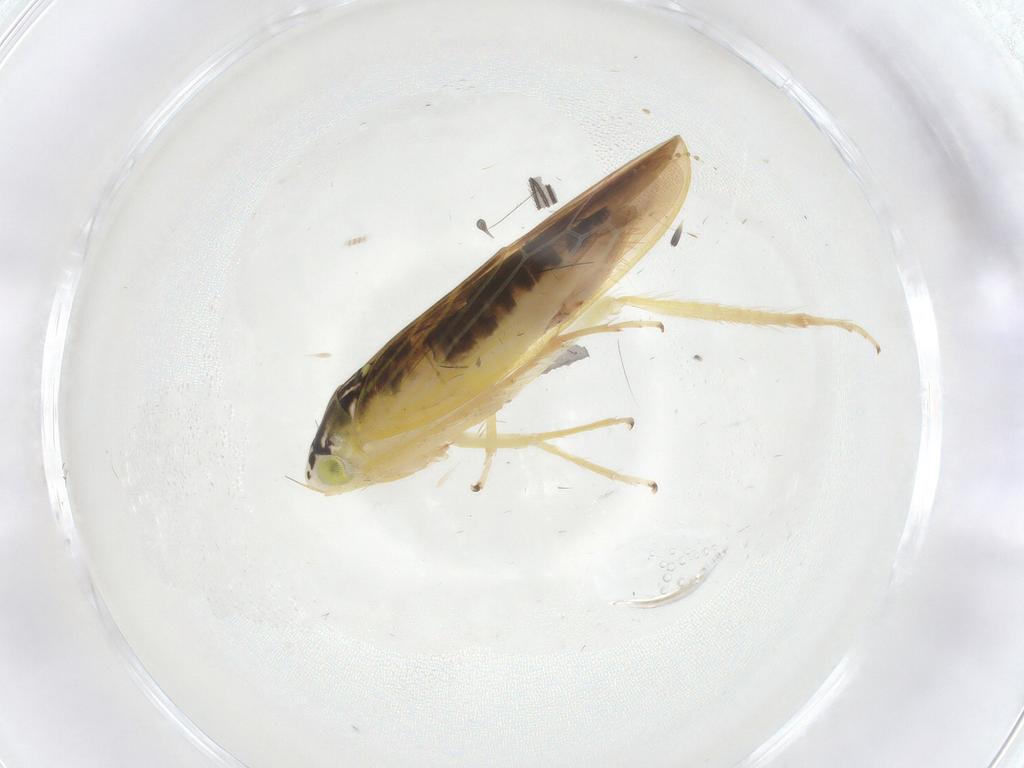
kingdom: Animalia
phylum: Arthropoda
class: Insecta
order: Hemiptera
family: Cicadellidae
